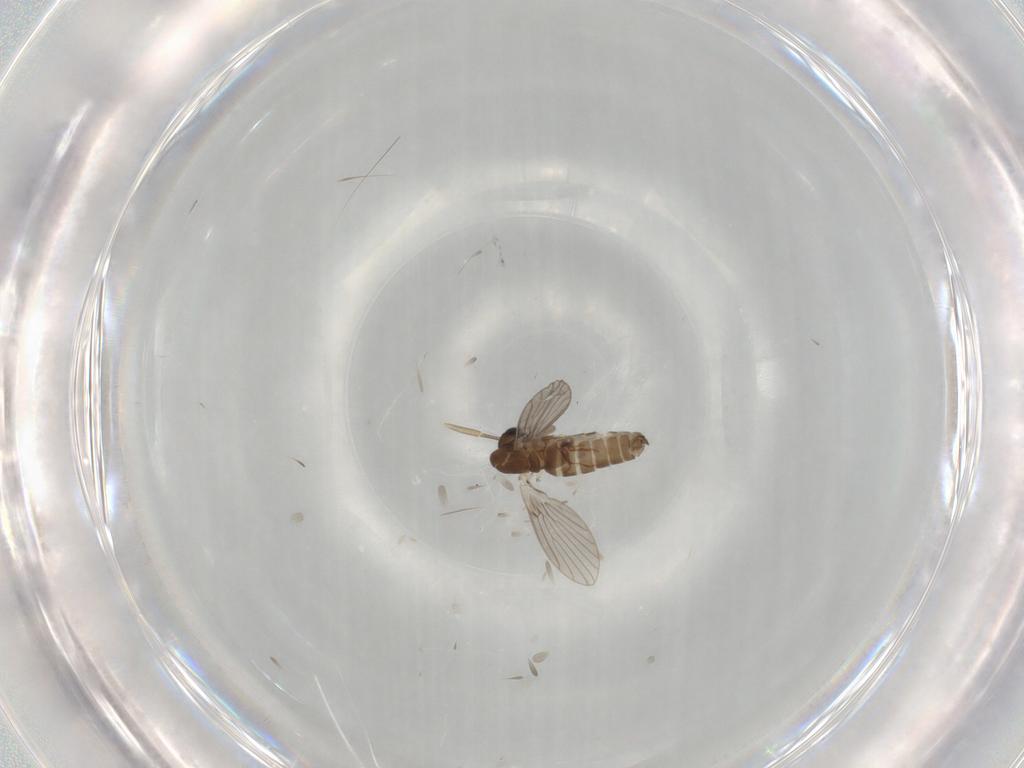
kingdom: Animalia
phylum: Arthropoda
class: Insecta
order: Diptera
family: Phoridae
